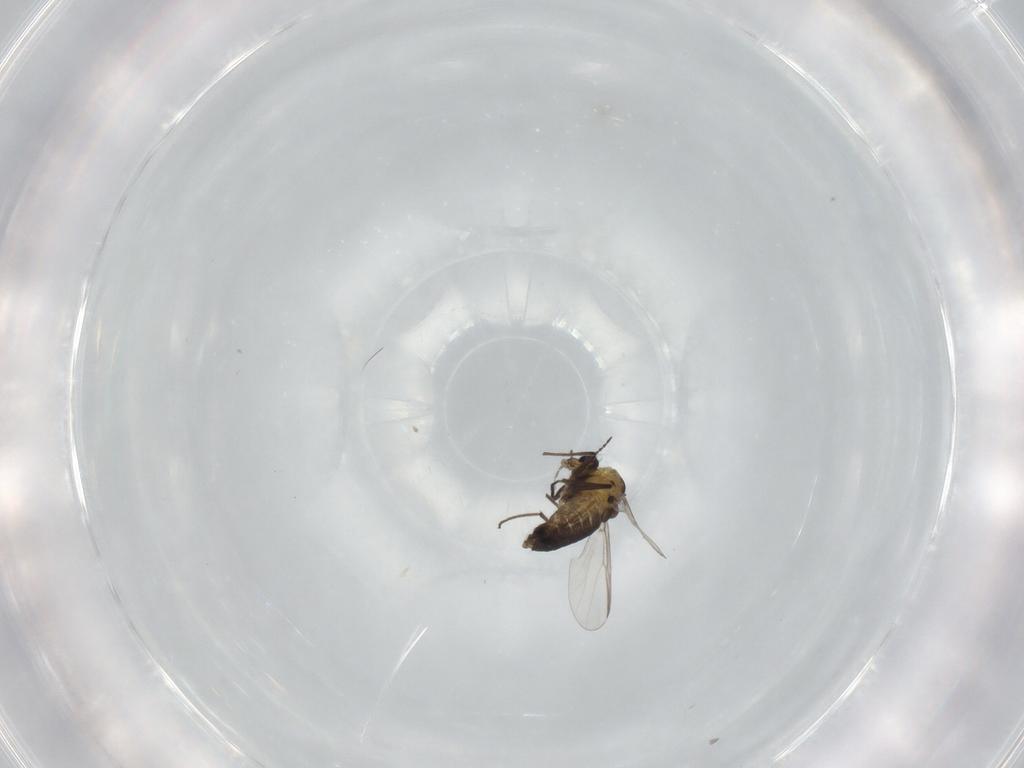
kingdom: Animalia
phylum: Arthropoda
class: Insecta
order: Diptera
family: Chironomidae
